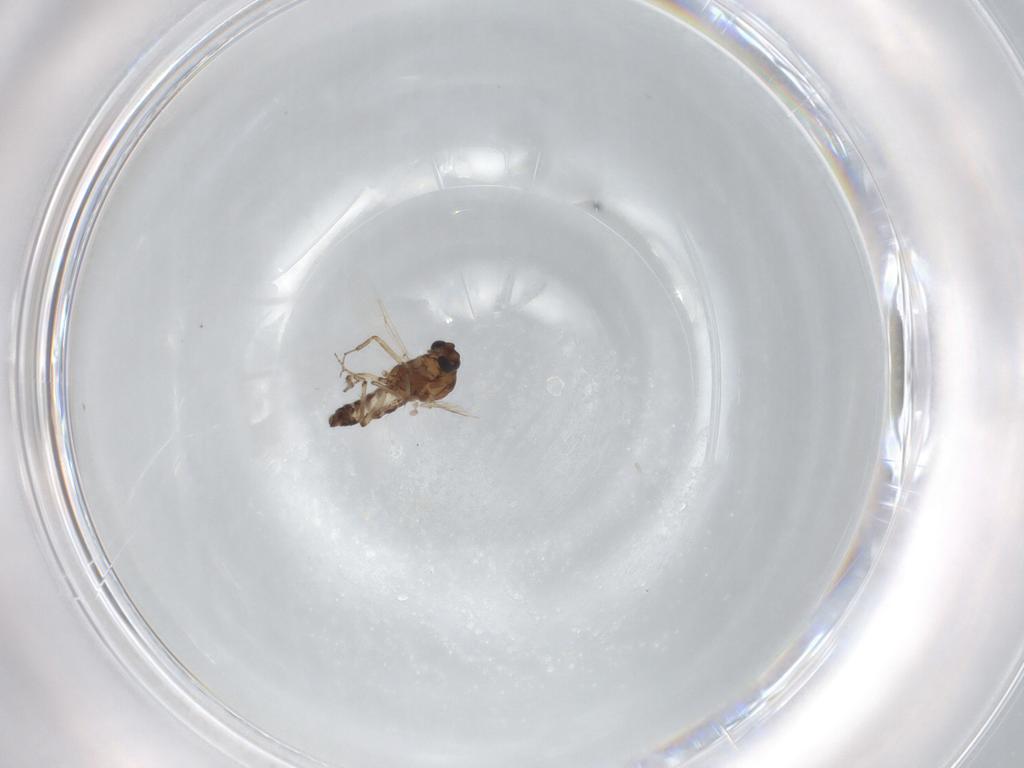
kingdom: Animalia
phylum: Arthropoda
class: Insecta
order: Diptera
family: Ceratopogonidae
